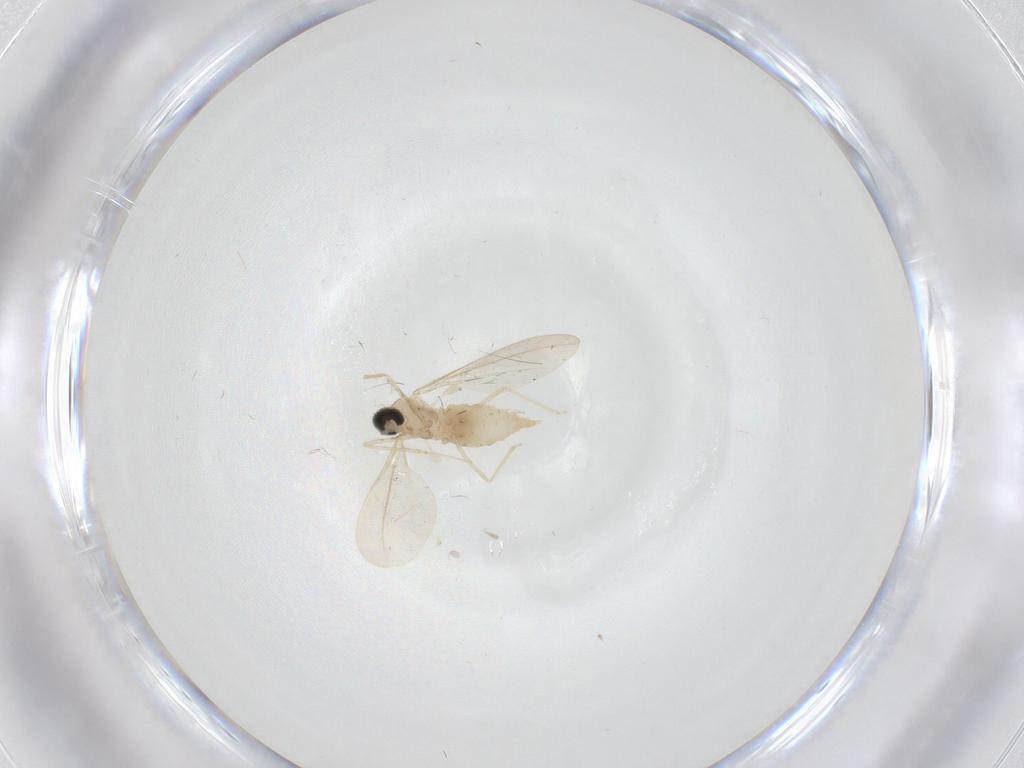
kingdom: Animalia
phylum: Arthropoda
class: Insecta
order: Diptera
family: Cecidomyiidae
